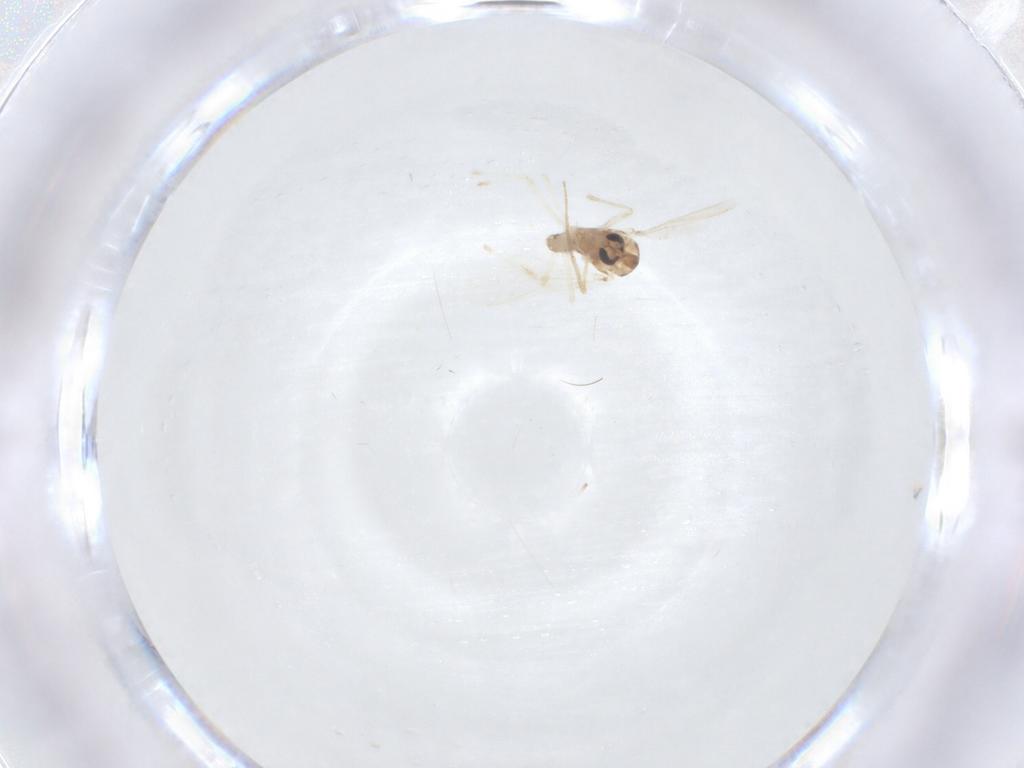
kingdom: Animalia
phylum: Arthropoda
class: Insecta
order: Diptera
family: Chironomidae
